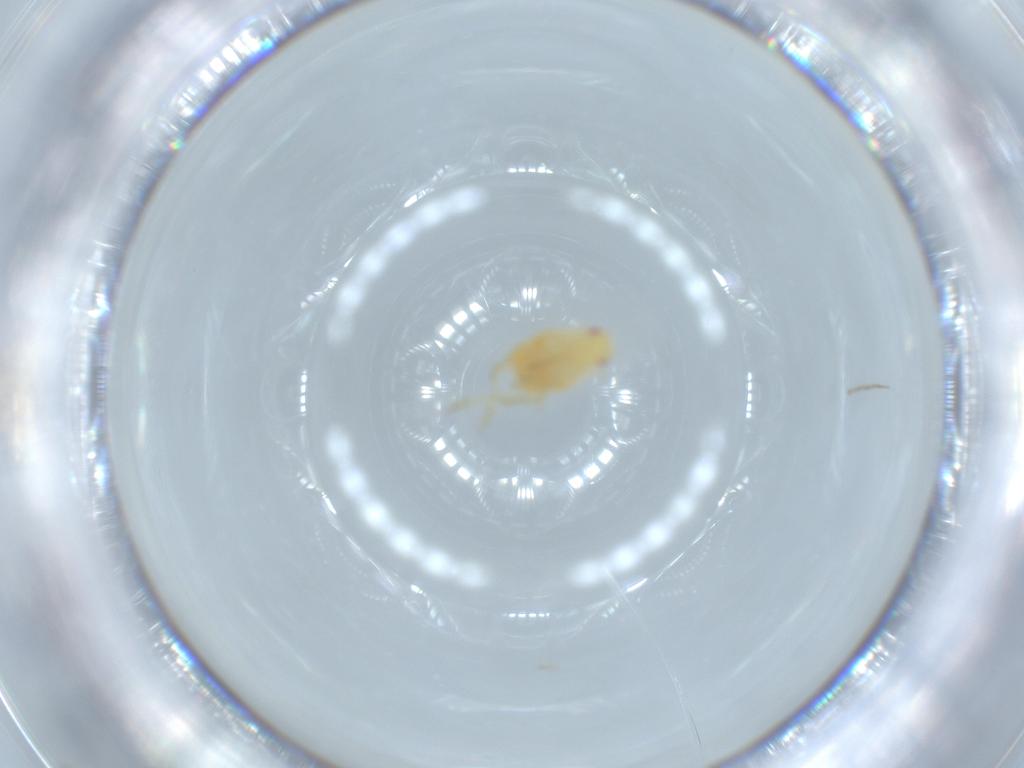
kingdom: Animalia
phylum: Arthropoda
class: Insecta
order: Hemiptera
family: Flatidae
